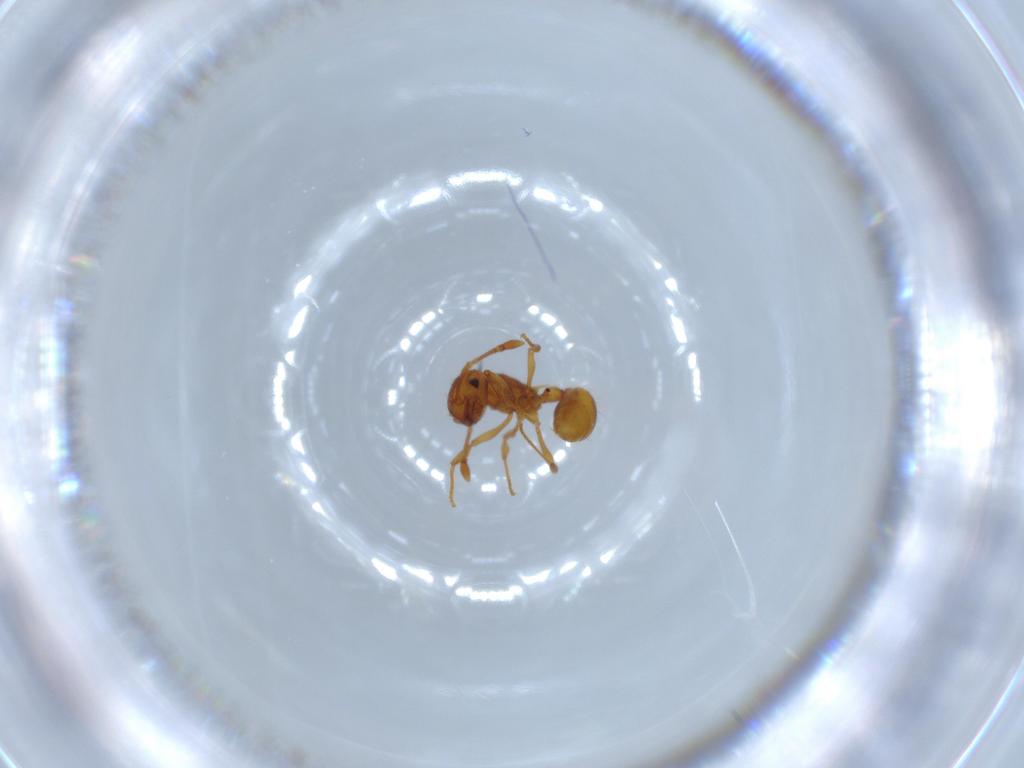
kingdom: Animalia
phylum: Arthropoda
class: Insecta
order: Hymenoptera
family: Formicidae
